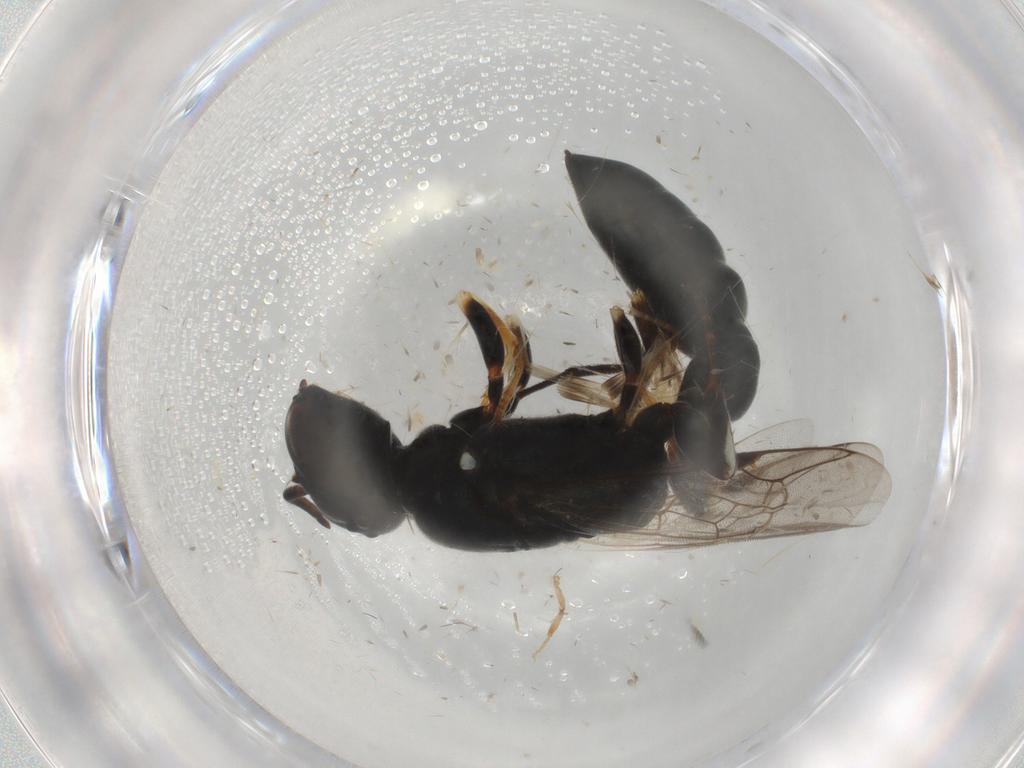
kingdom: Animalia
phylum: Arthropoda
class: Insecta
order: Hymenoptera
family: Crabronidae
